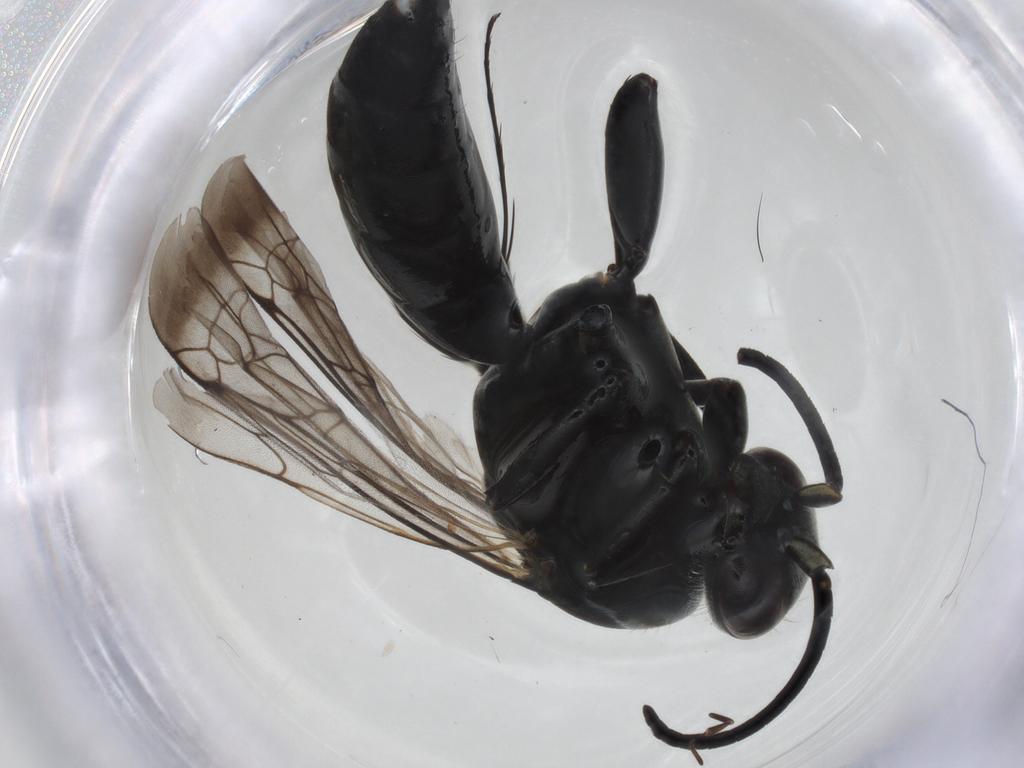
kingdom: Animalia
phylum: Arthropoda
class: Insecta
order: Hymenoptera
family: Pompilidae
